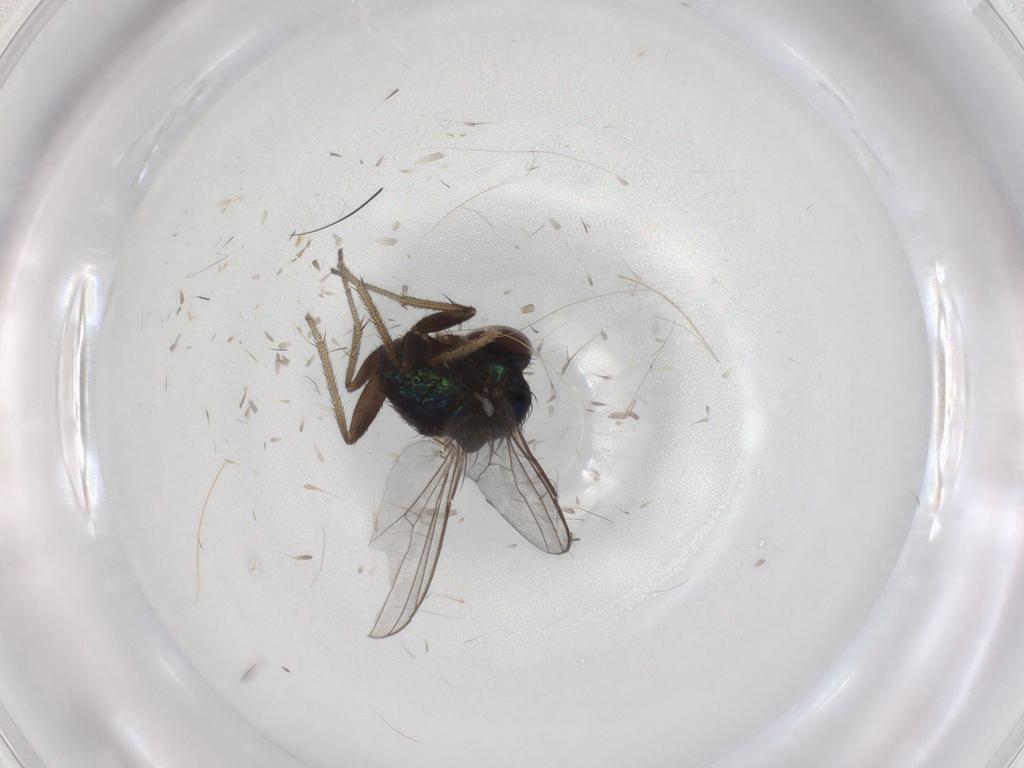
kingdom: Animalia
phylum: Arthropoda
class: Insecta
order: Diptera
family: Dolichopodidae
